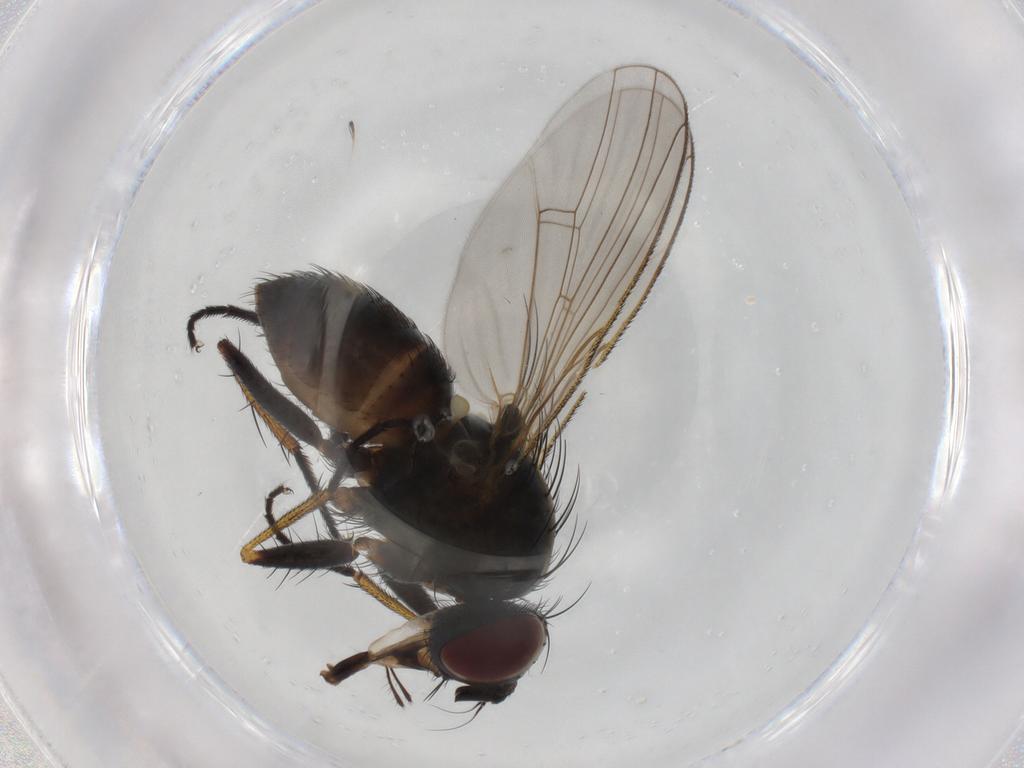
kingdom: Animalia
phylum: Arthropoda
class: Insecta
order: Diptera
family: Muscidae
